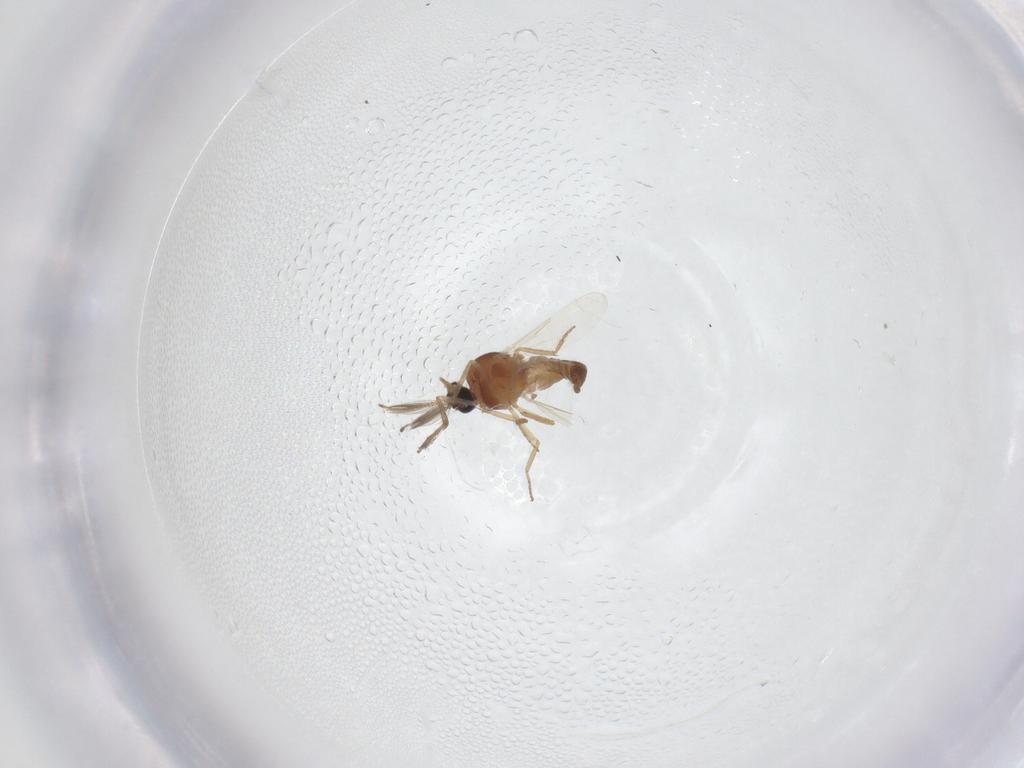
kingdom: Animalia
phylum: Arthropoda
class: Insecta
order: Diptera
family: Ceratopogonidae
